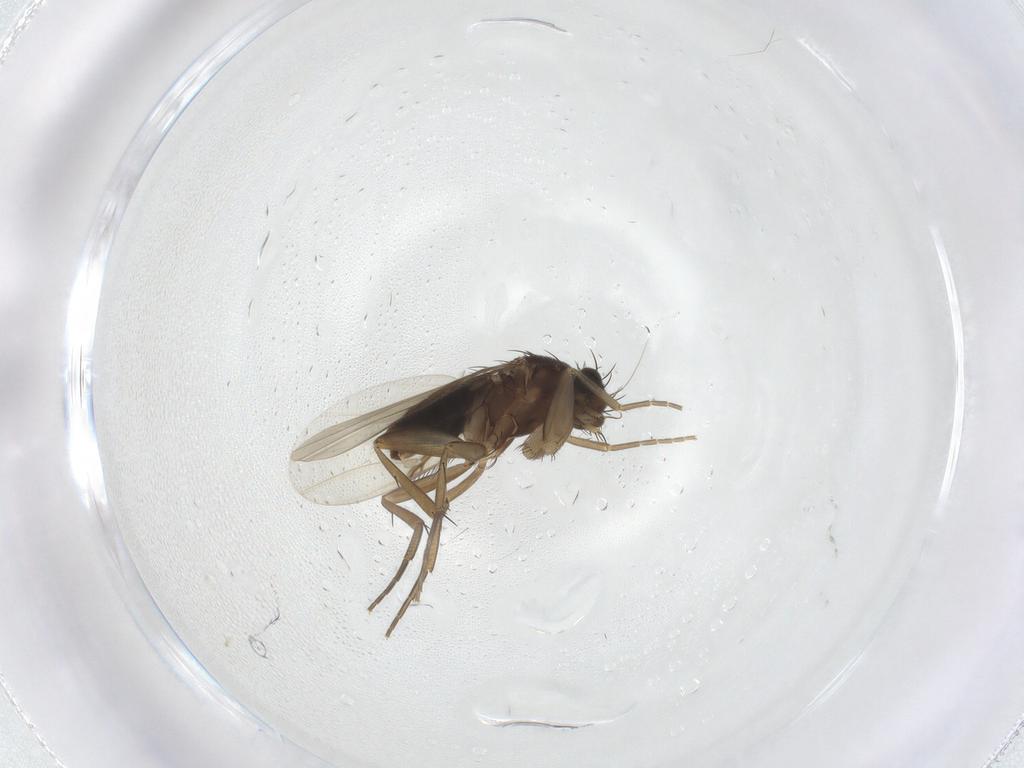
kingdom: Animalia
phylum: Arthropoda
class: Insecta
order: Diptera
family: Phoridae
